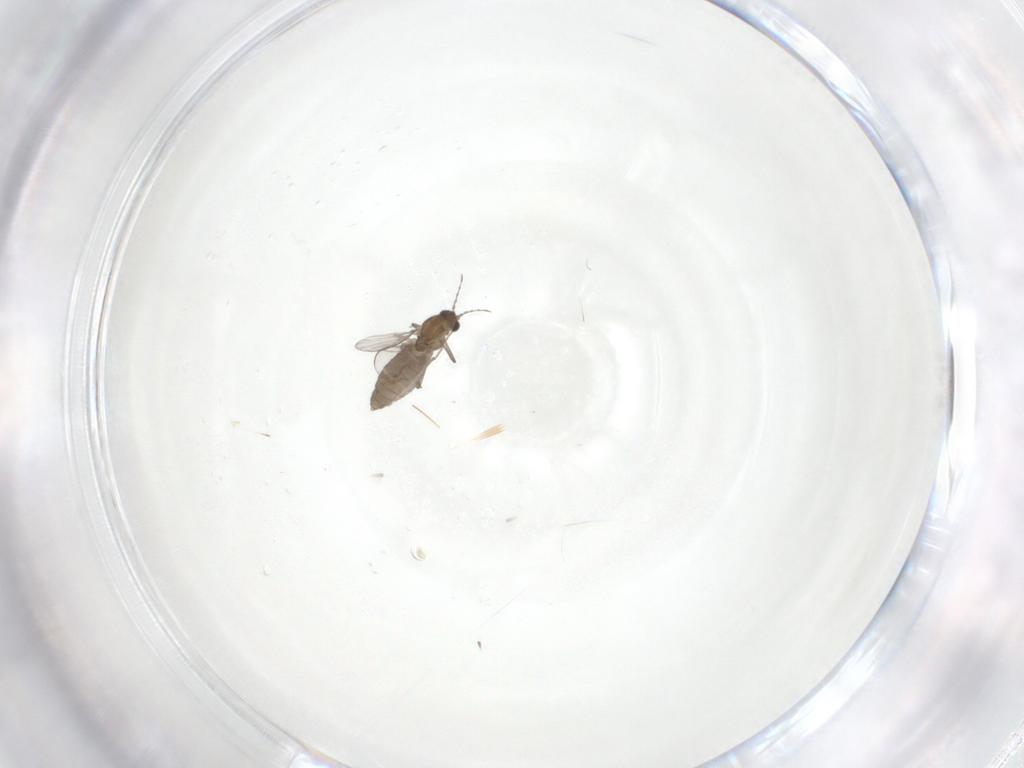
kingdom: Animalia
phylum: Arthropoda
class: Insecta
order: Diptera
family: Chironomidae
